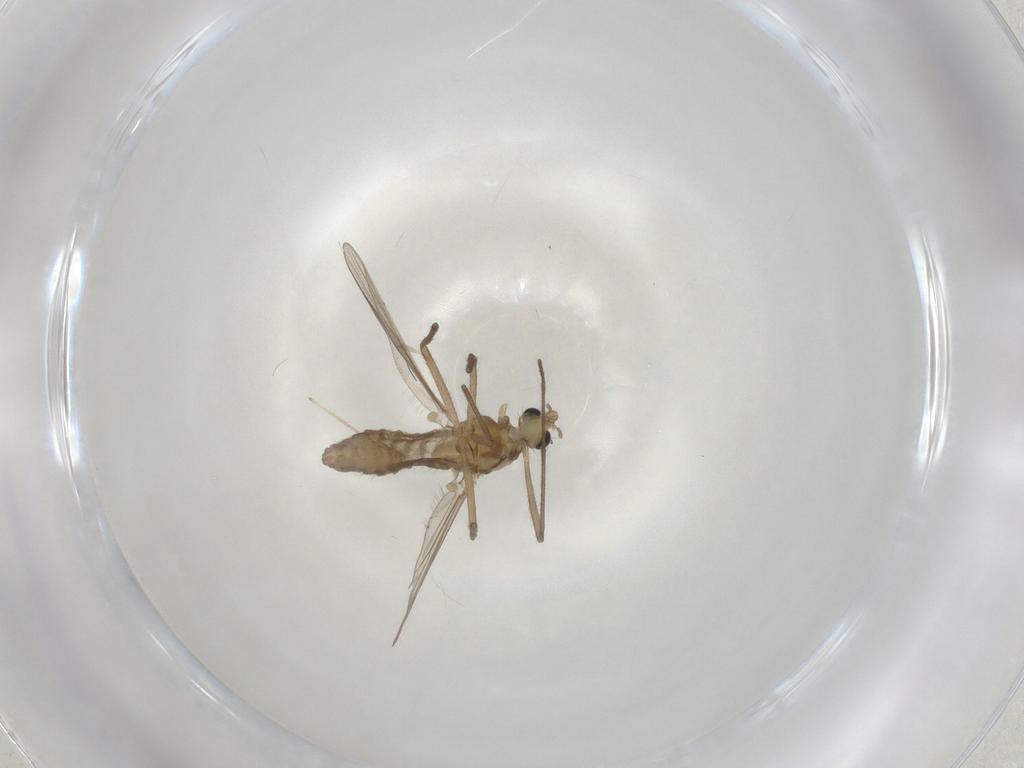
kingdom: Animalia
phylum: Arthropoda
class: Insecta
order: Diptera
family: Chironomidae
